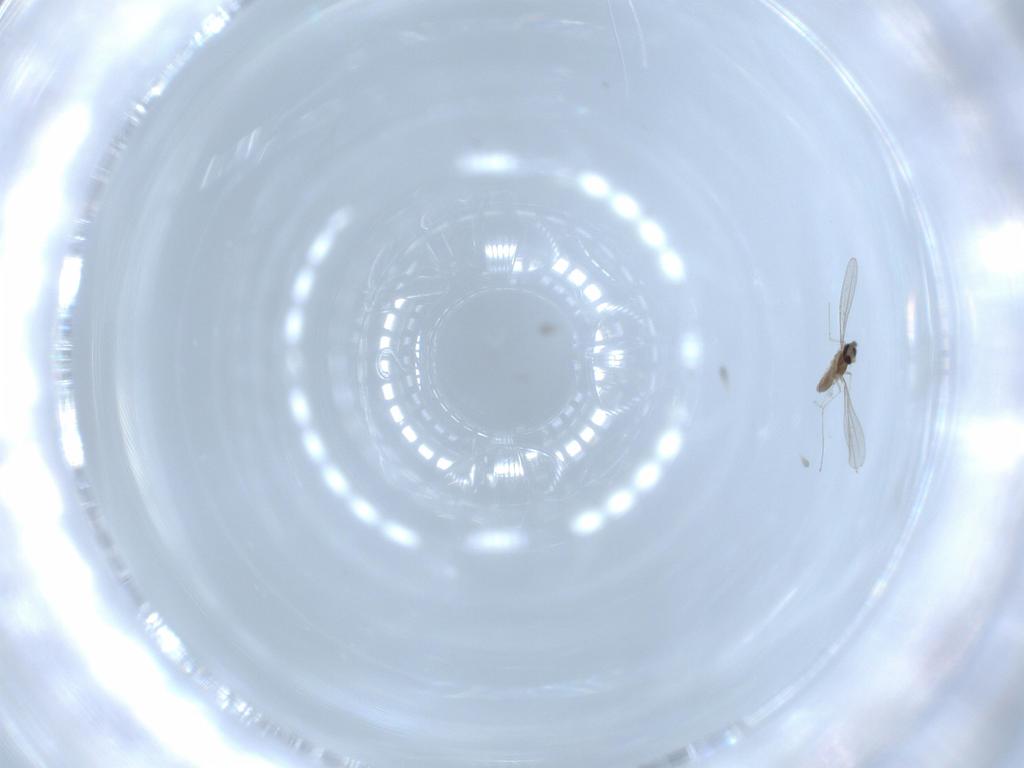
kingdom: Animalia
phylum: Arthropoda
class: Insecta
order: Diptera
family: Cecidomyiidae
